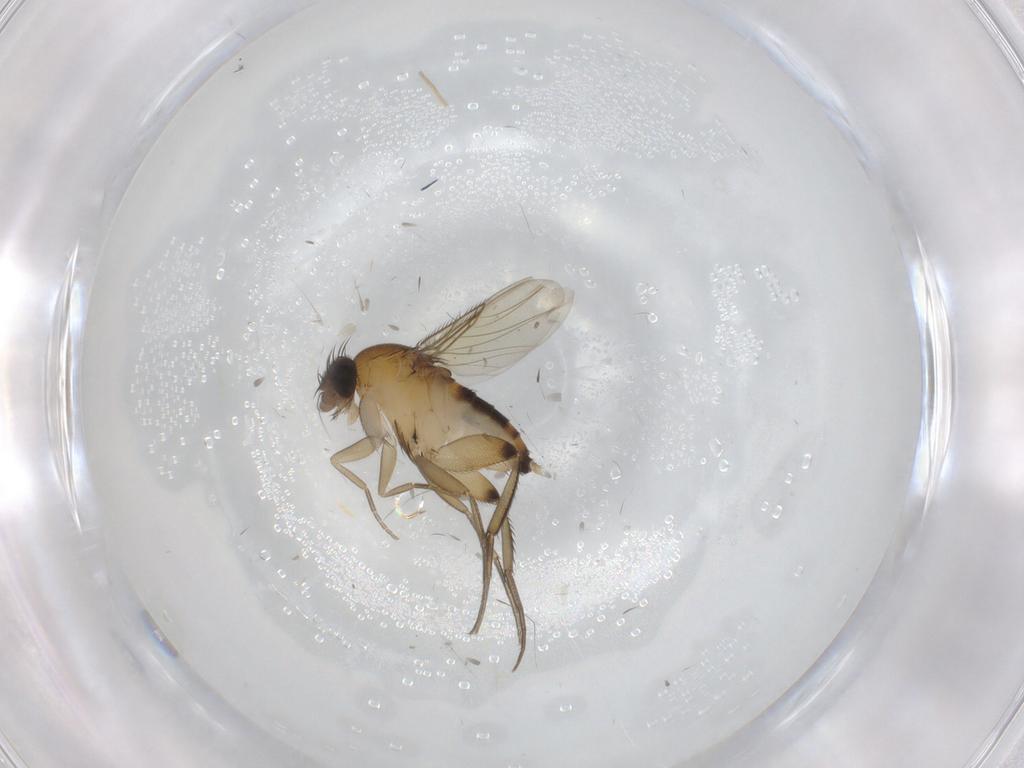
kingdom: Animalia
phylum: Arthropoda
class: Insecta
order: Diptera
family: Phoridae
